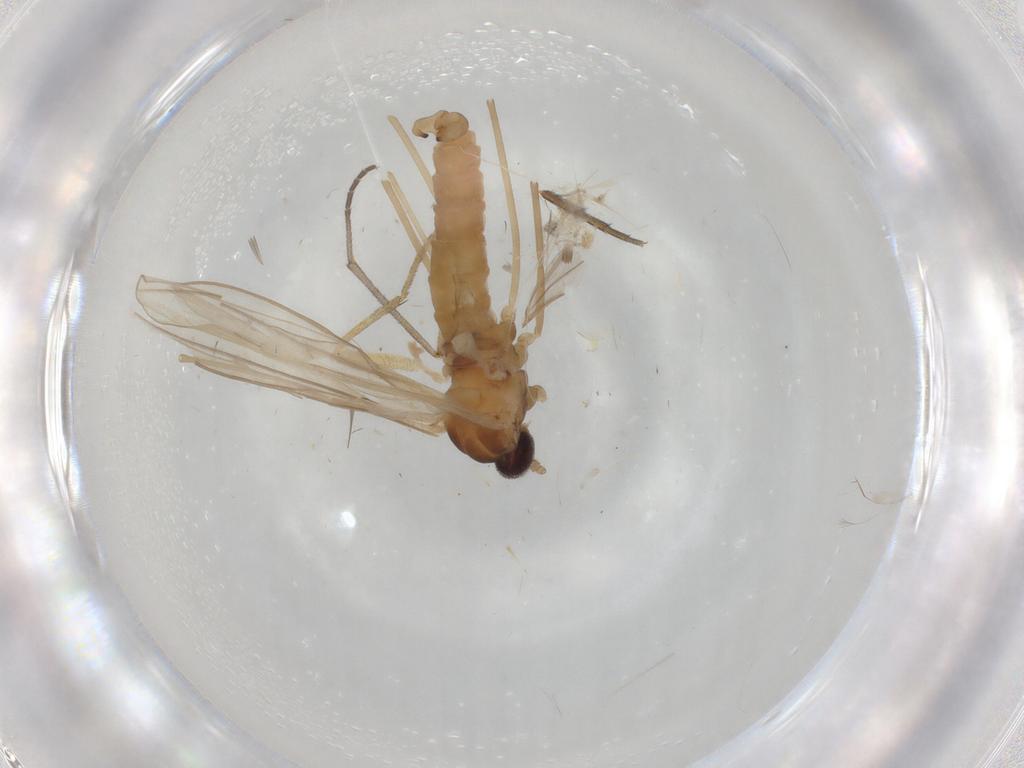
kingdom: Animalia
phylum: Arthropoda
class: Insecta
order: Diptera
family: Cecidomyiidae
